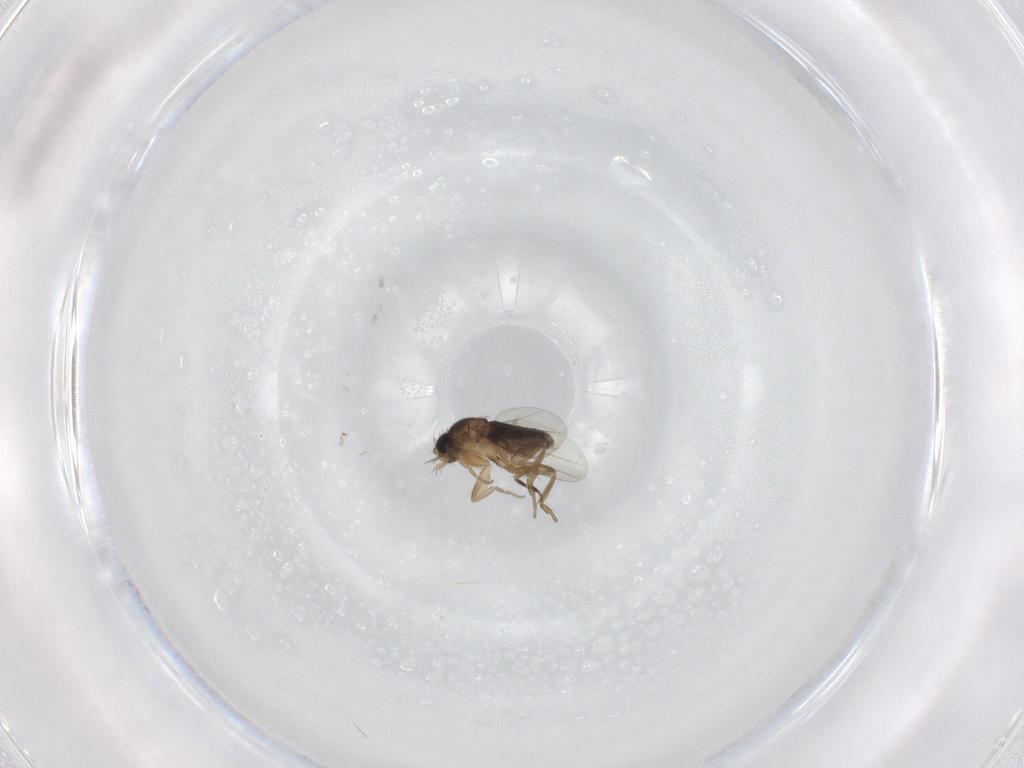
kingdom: Animalia
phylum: Arthropoda
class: Insecta
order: Diptera
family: Phoridae
